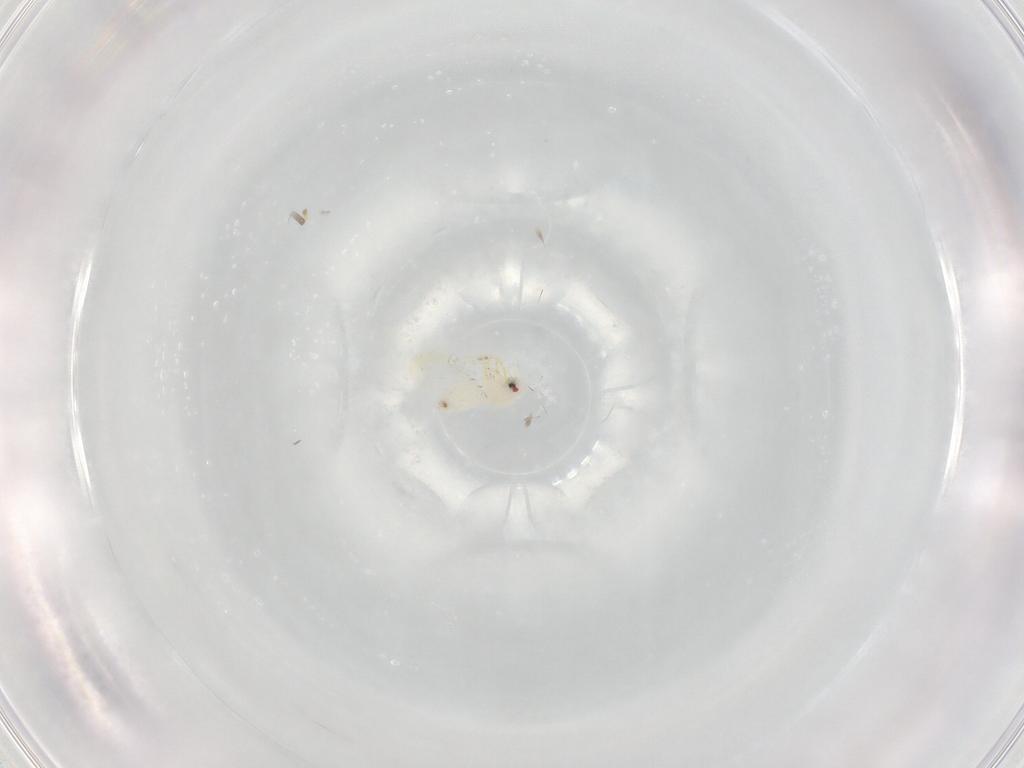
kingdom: Animalia
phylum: Arthropoda
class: Insecta
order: Hemiptera
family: Aleyrodidae
